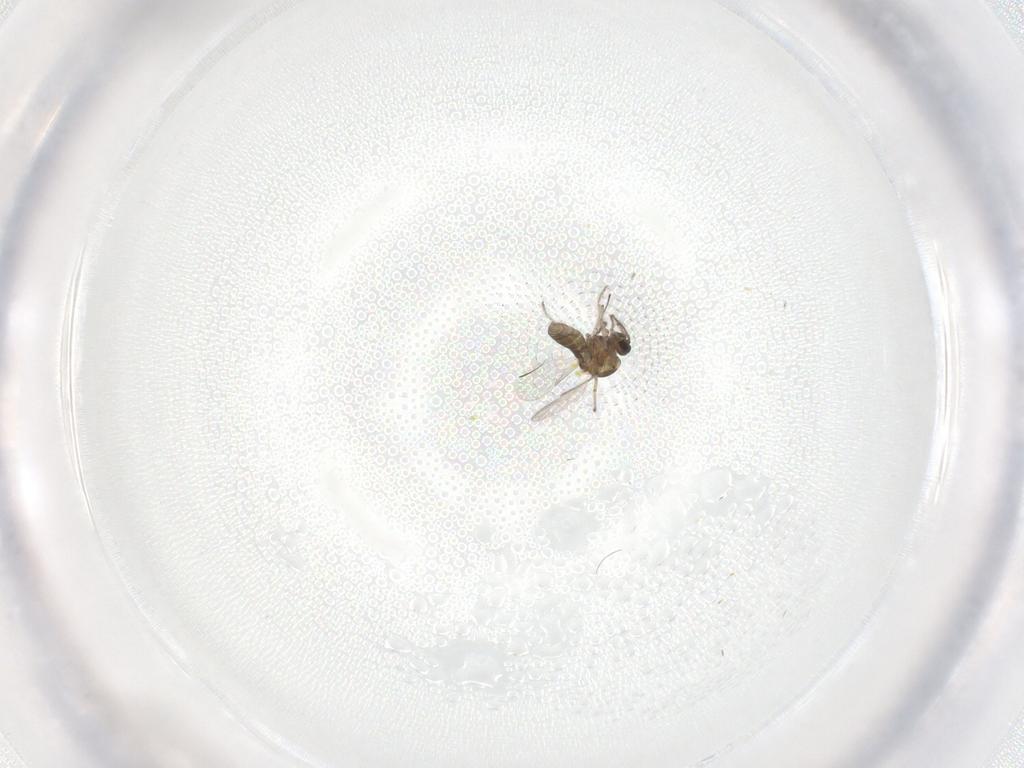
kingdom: Animalia
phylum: Arthropoda
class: Insecta
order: Diptera
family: Ceratopogonidae
